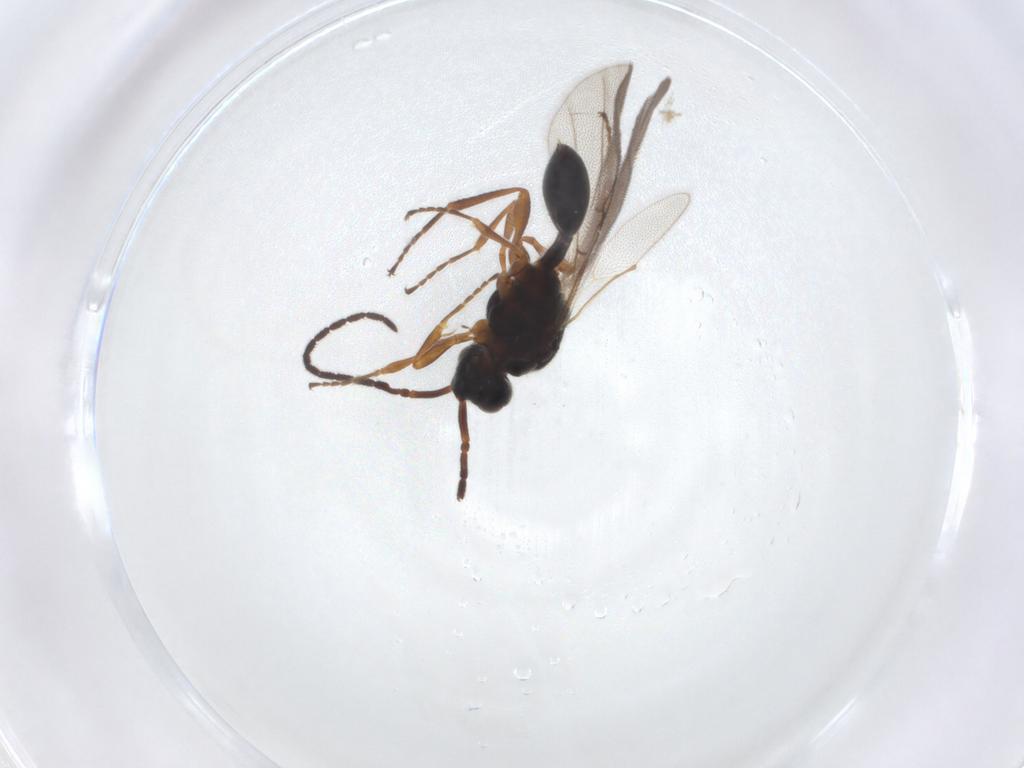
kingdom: Animalia
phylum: Arthropoda
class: Insecta
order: Hymenoptera
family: Diapriidae
